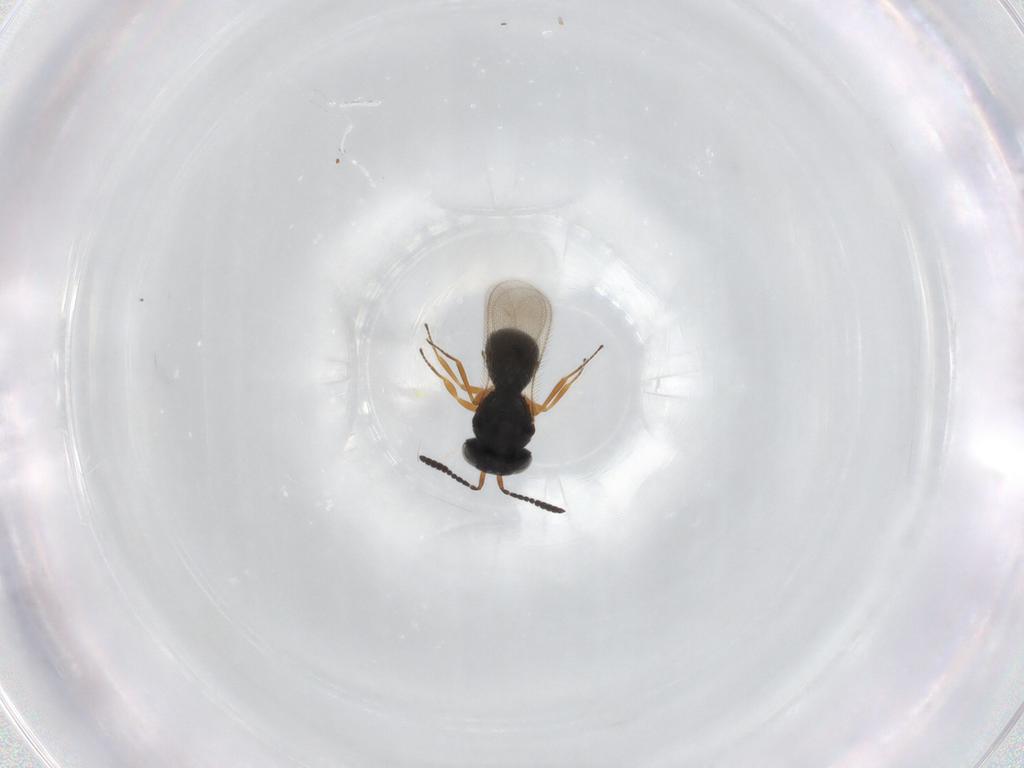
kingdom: Animalia
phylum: Arthropoda
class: Insecta
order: Hymenoptera
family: Scelionidae
